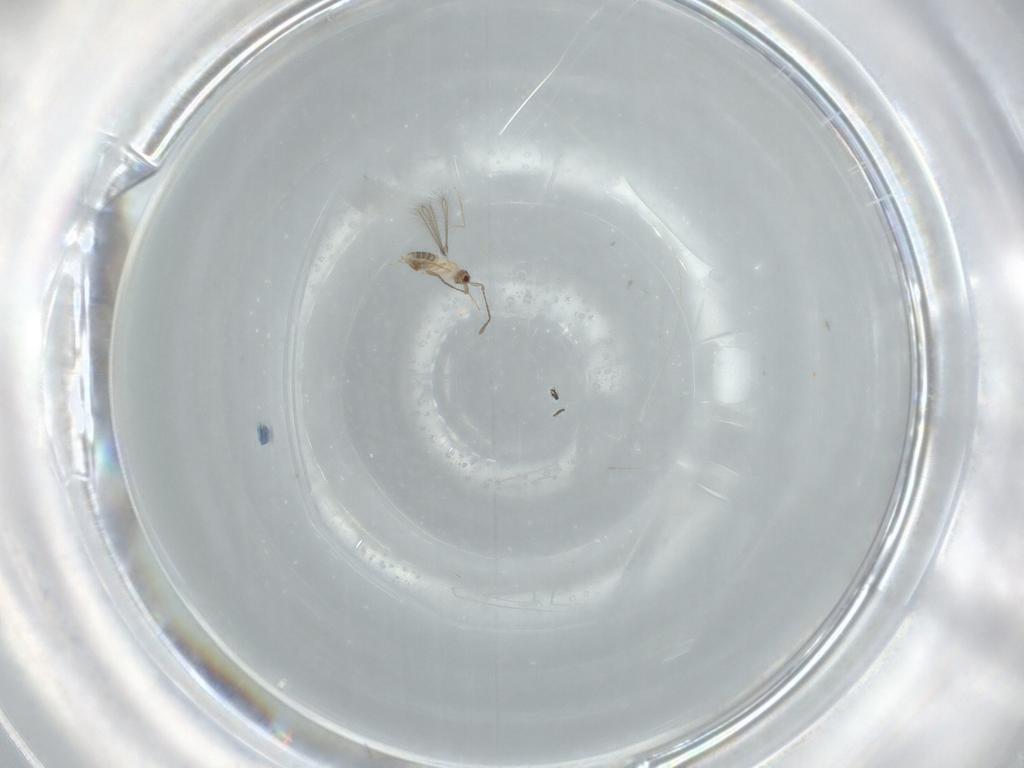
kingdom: Animalia
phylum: Arthropoda
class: Insecta
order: Hymenoptera
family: Mymaridae
